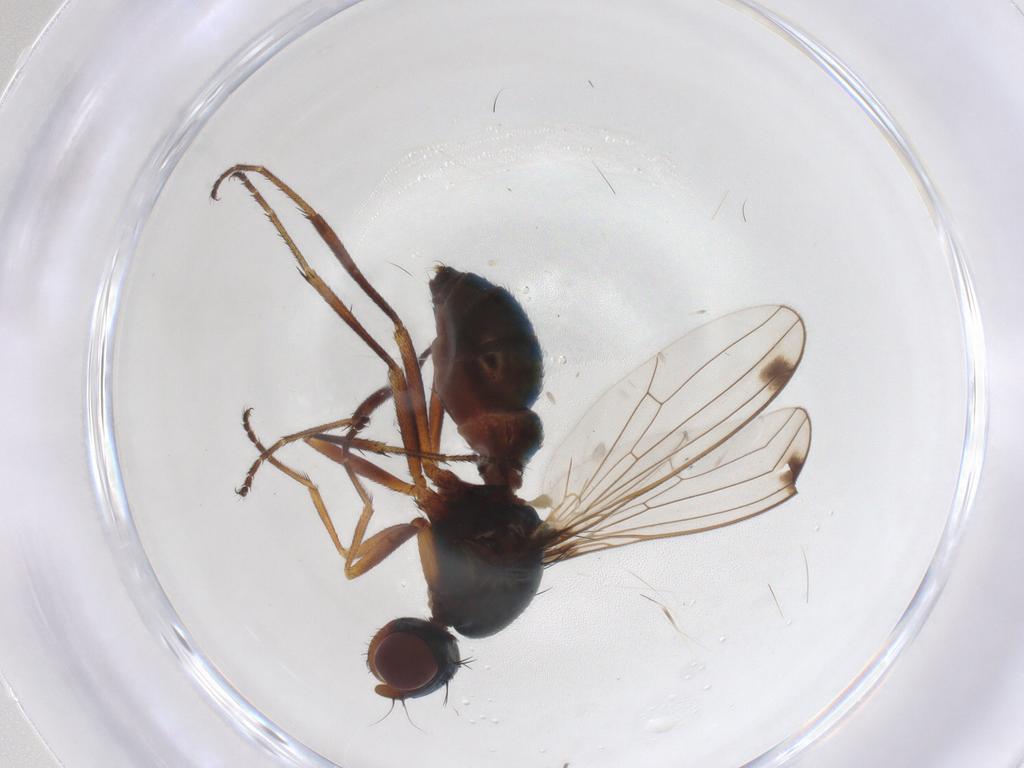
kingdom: Animalia
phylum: Arthropoda
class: Insecta
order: Diptera
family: Sepsidae
